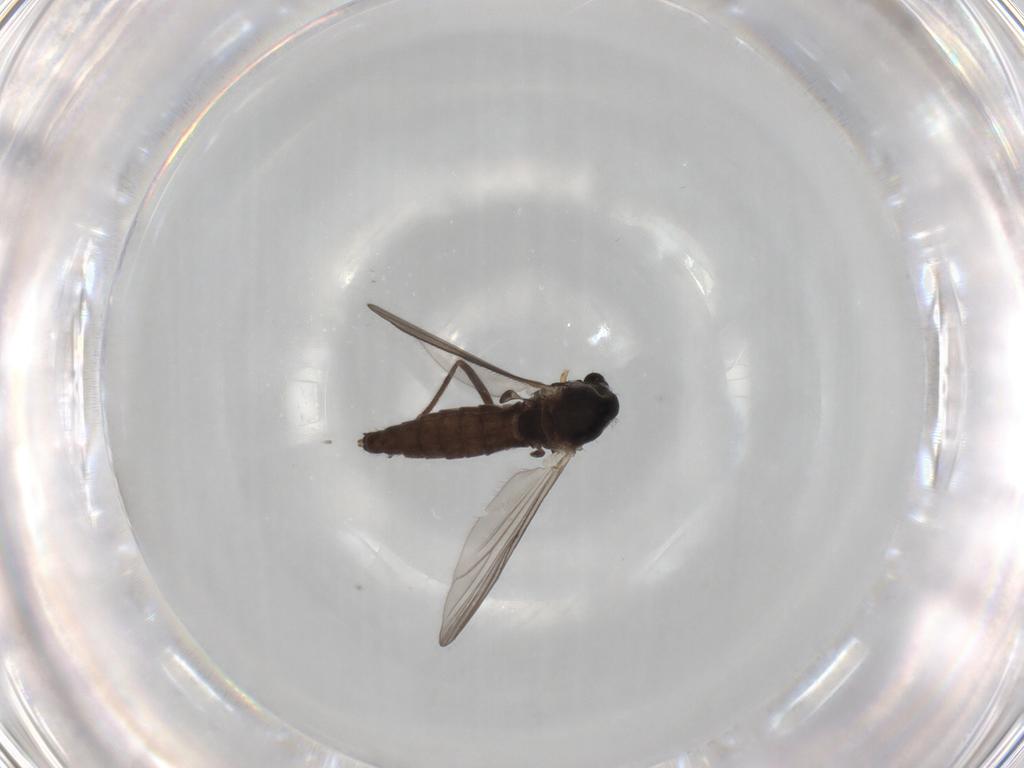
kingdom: Animalia
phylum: Arthropoda
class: Insecta
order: Diptera
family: Chironomidae
